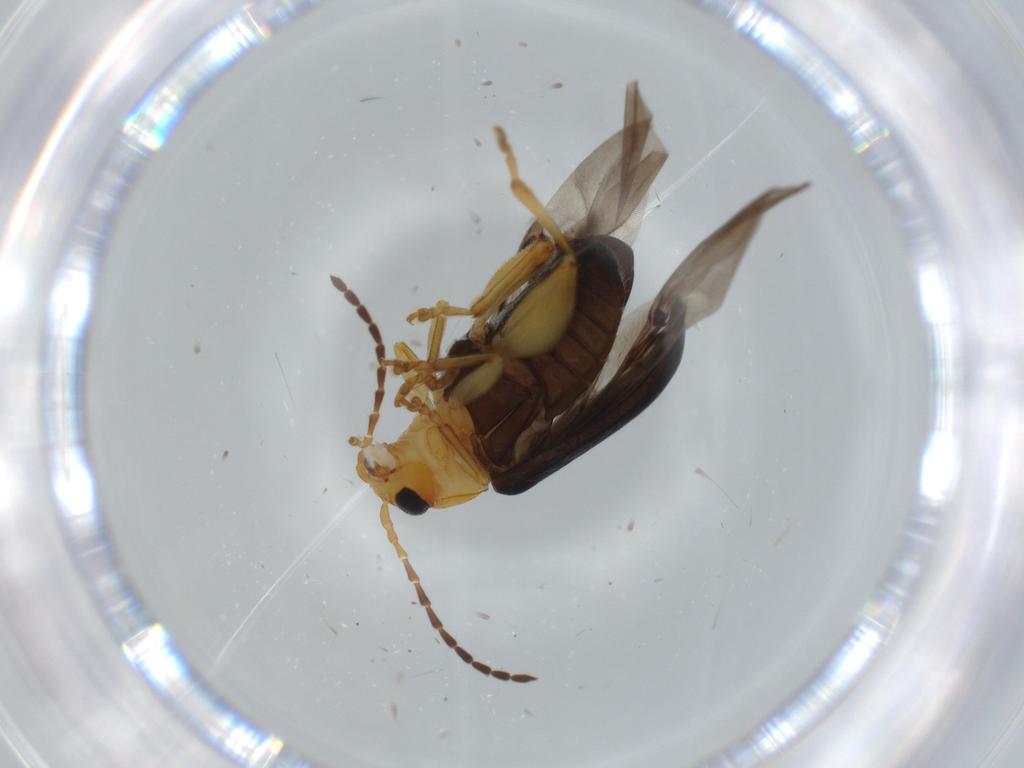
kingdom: Animalia
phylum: Arthropoda
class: Insecta
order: Coleoptera
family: Chrysomelidae
